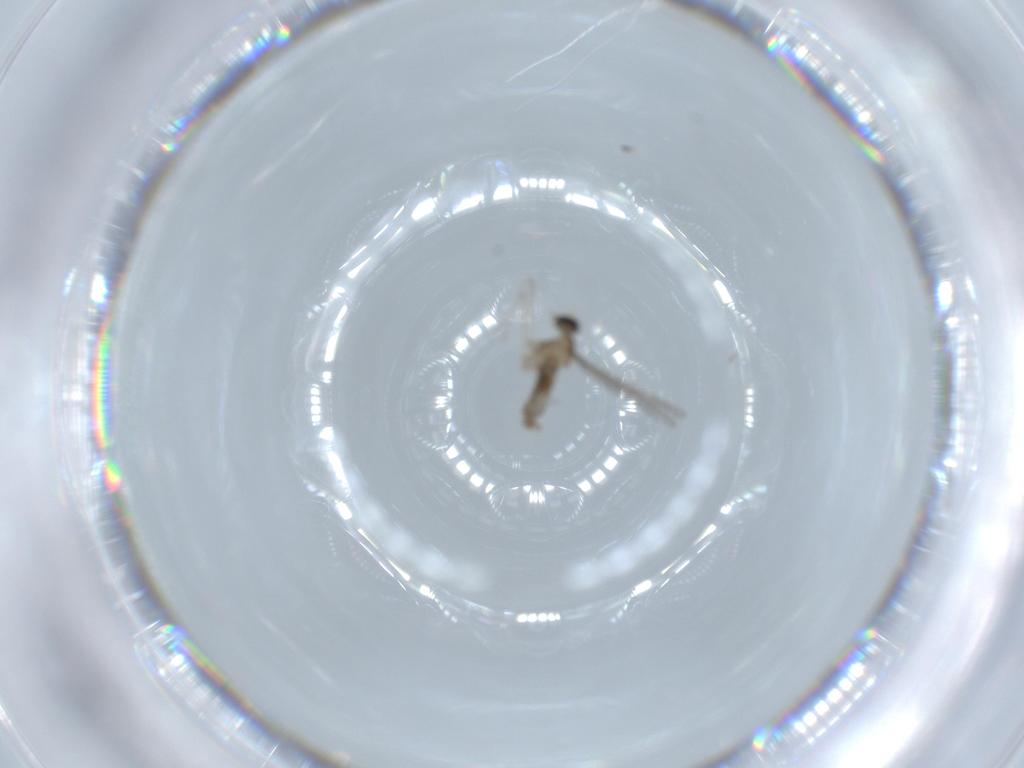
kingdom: Animalia
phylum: Arthropoda
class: Insecta
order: Diptera
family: Cecidomyiidae
